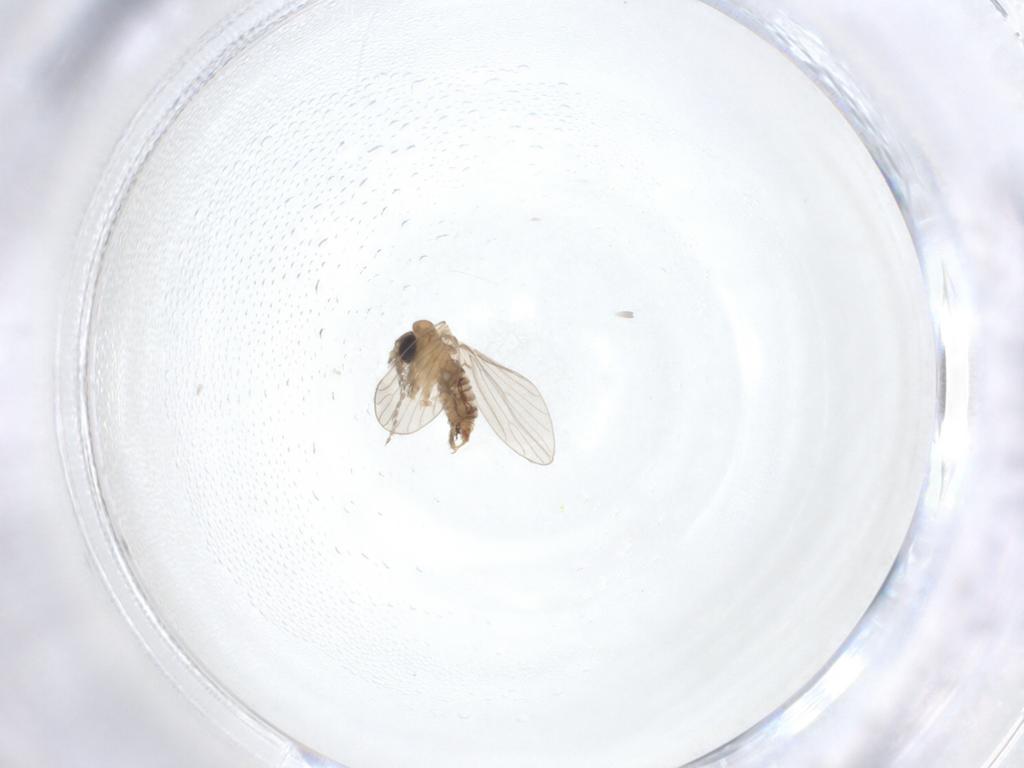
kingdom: Animalia
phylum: Arthropoda
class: Insecta
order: Diptera
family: Psychodidae
